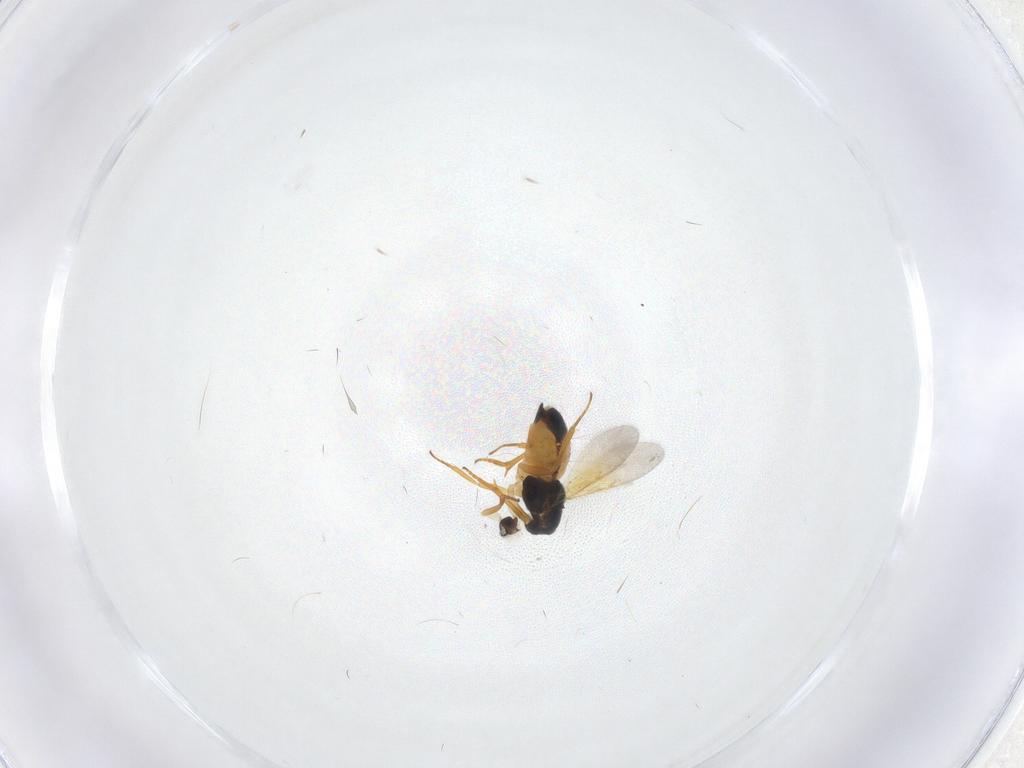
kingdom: Animalia
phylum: Arthropoda
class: Insecta
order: Hymenoptera
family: Encyrtidae
